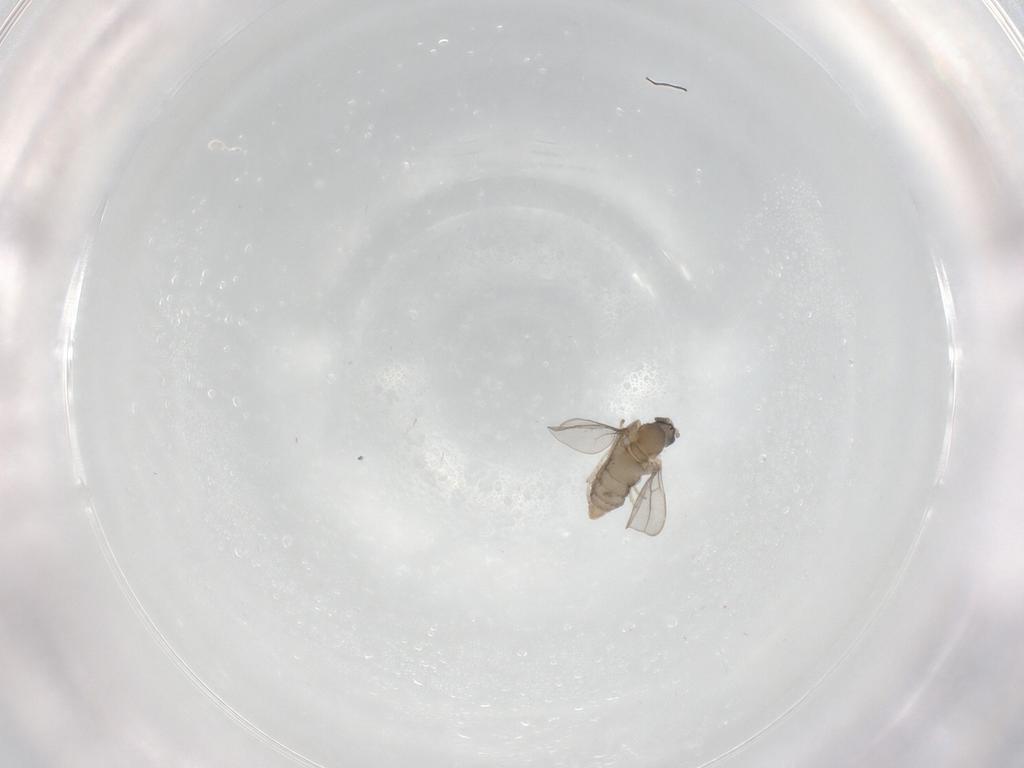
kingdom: Animalia
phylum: Arthropoda
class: Insecta
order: Diptera
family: Cecidomyiidae
